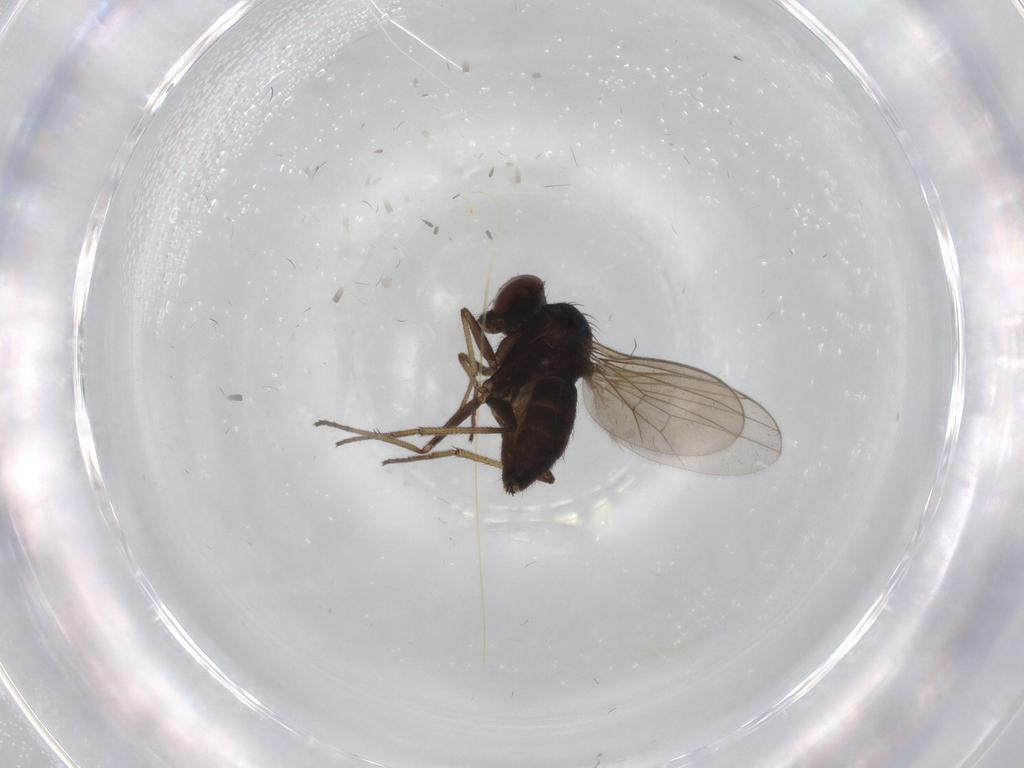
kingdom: Animalia
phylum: Arthropoda
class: Insecta
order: Diptera
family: Dolichopodidae
